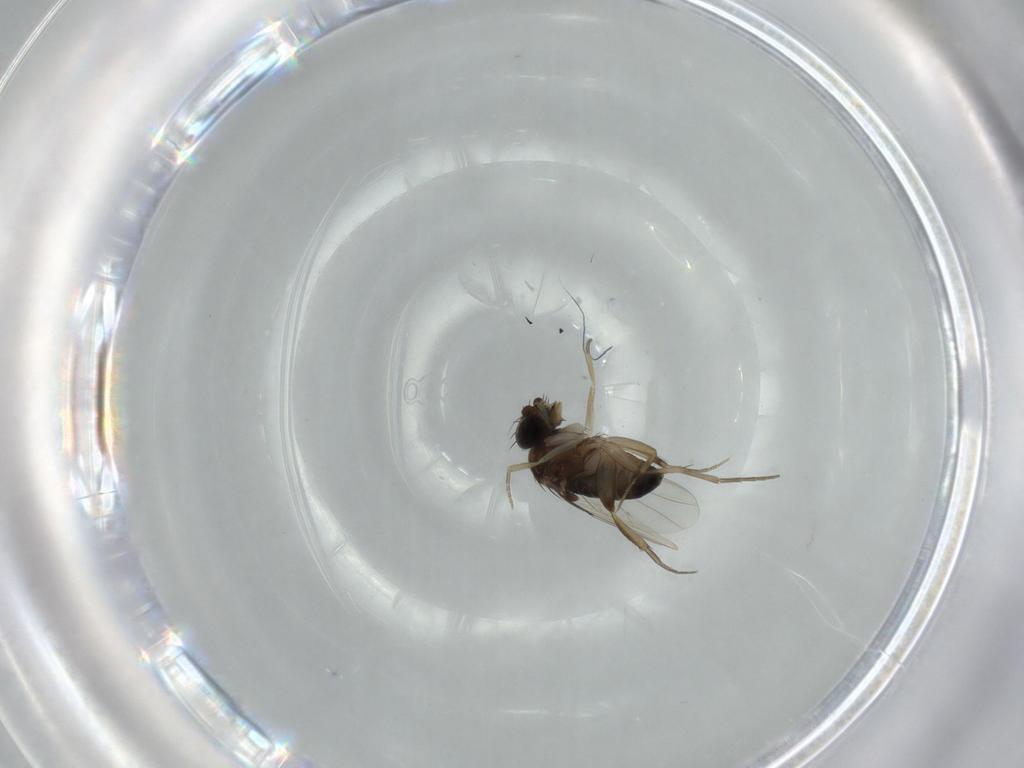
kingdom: Animalia
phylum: Arthropoda
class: Insecta
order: Diptera
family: Phoridae
